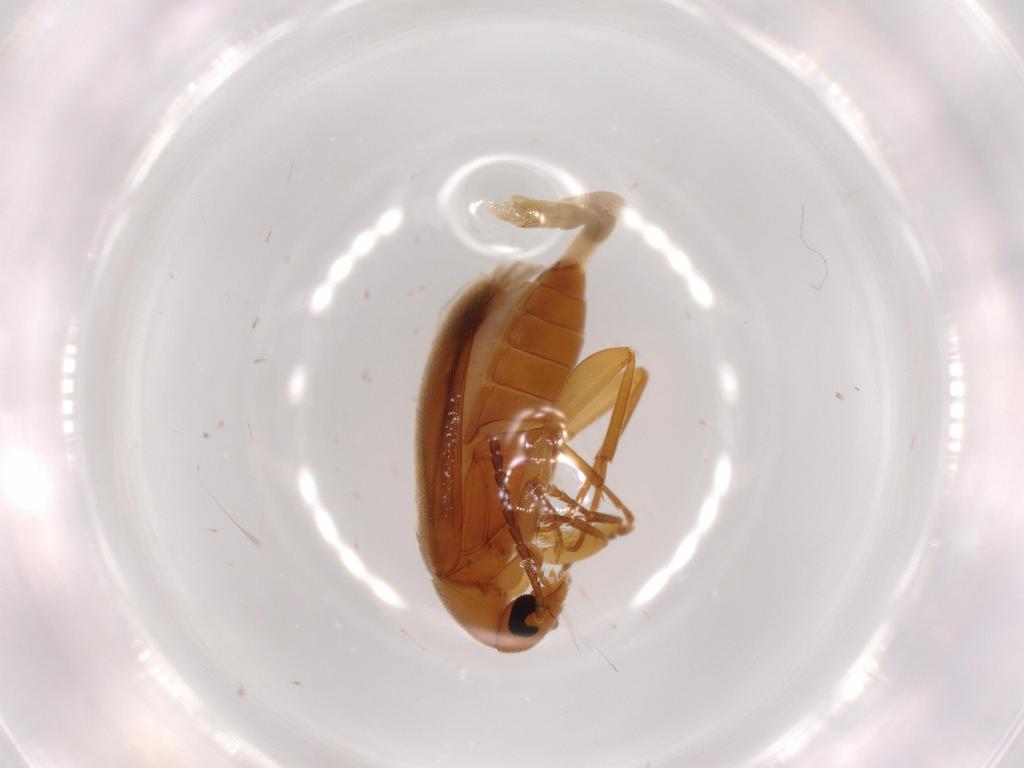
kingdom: Animalia
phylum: Arthropoda
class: Insecta
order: Coleoptera
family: Scraptiidae
